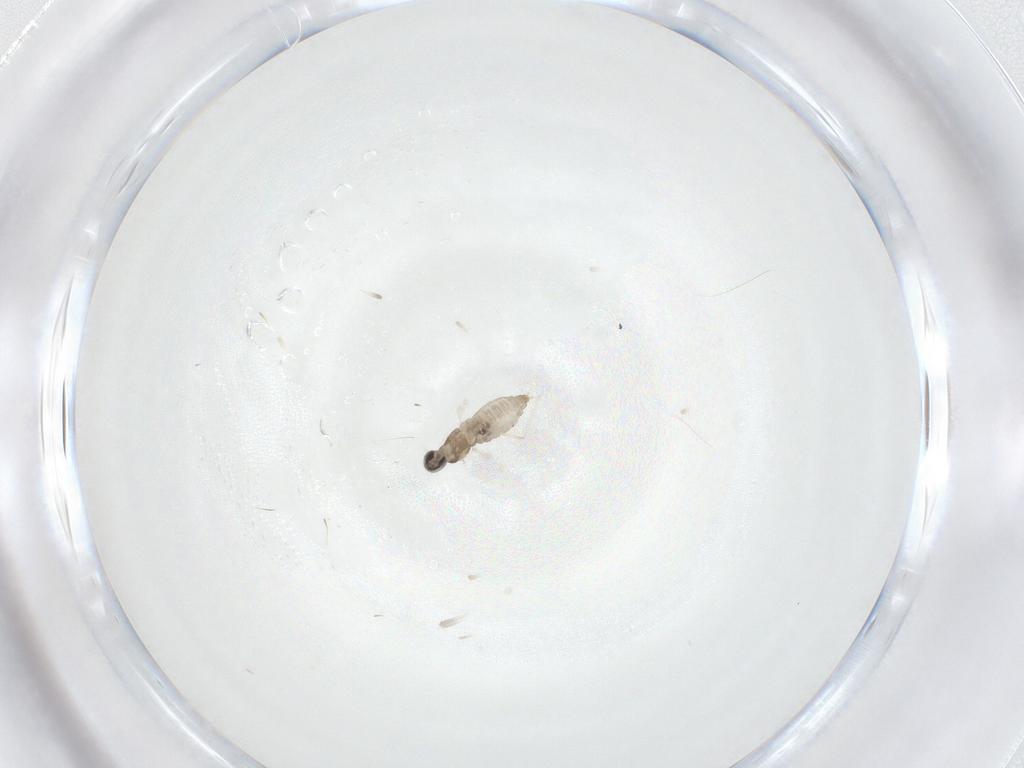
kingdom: Animalia
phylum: Arthropoda
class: Insecta
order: Diptera
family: Cecidomyiidae
